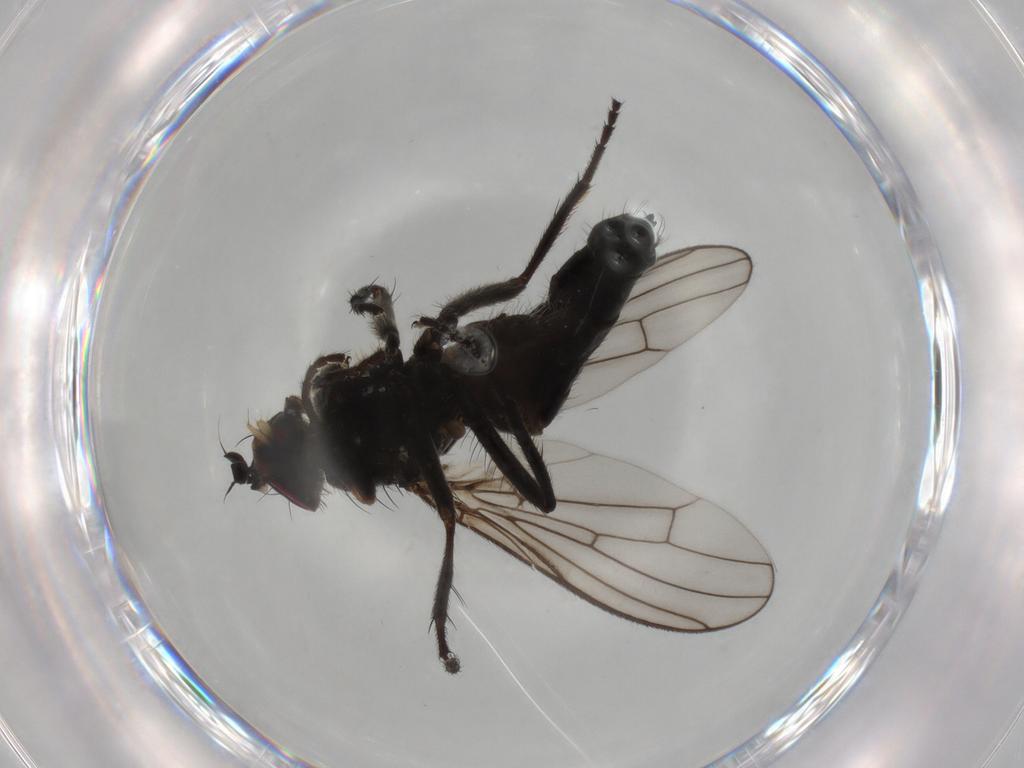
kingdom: Animalia
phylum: Arthropoda
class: Insecta
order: Diptera
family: Scathophagidae
